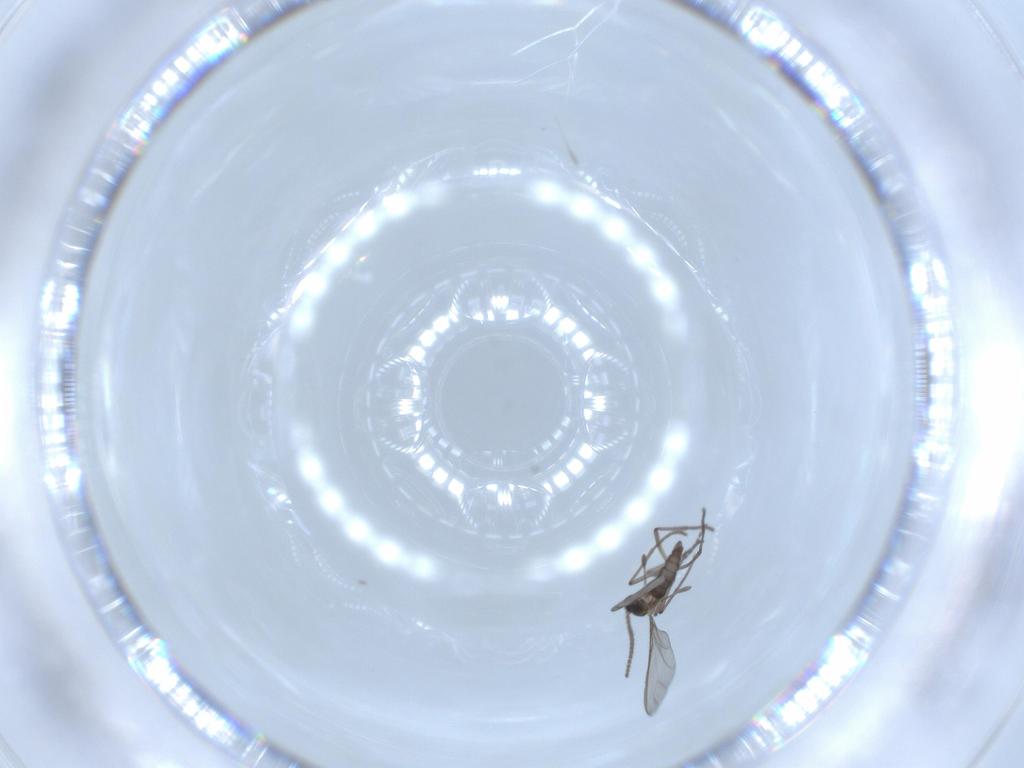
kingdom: Animalia
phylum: Arthropoda
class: Insecta
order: Diptera
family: Sciaridae
